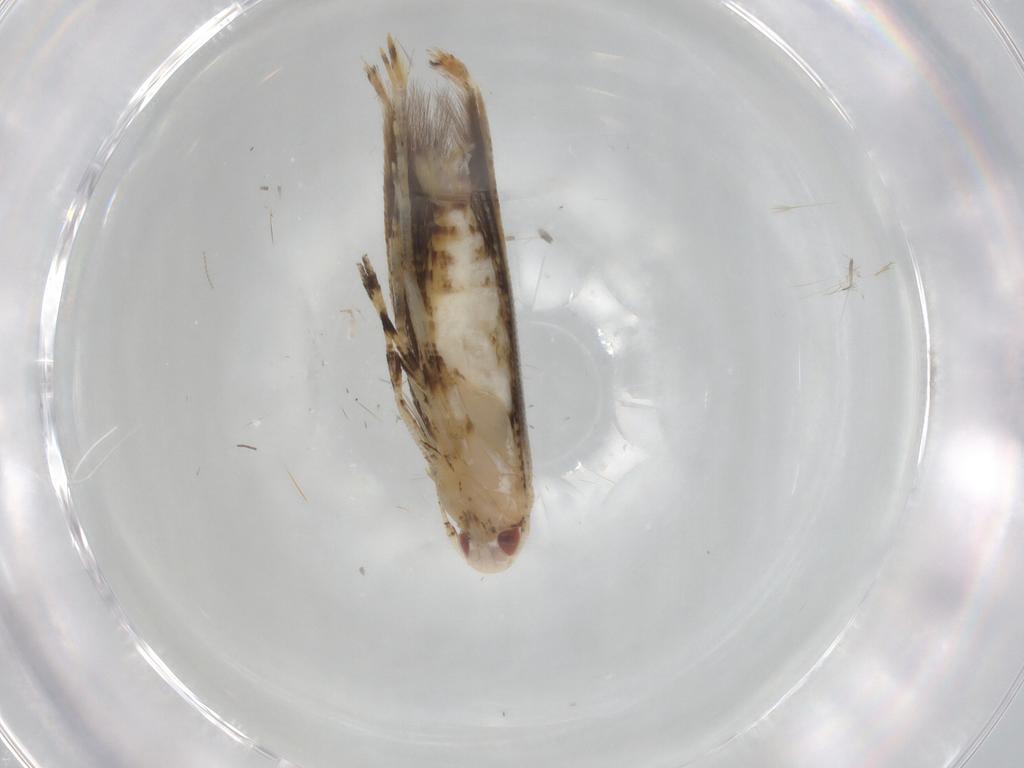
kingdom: Animalia
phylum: Arthropoda
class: Insecta
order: Lepidoptera
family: Cosmopterigidae
